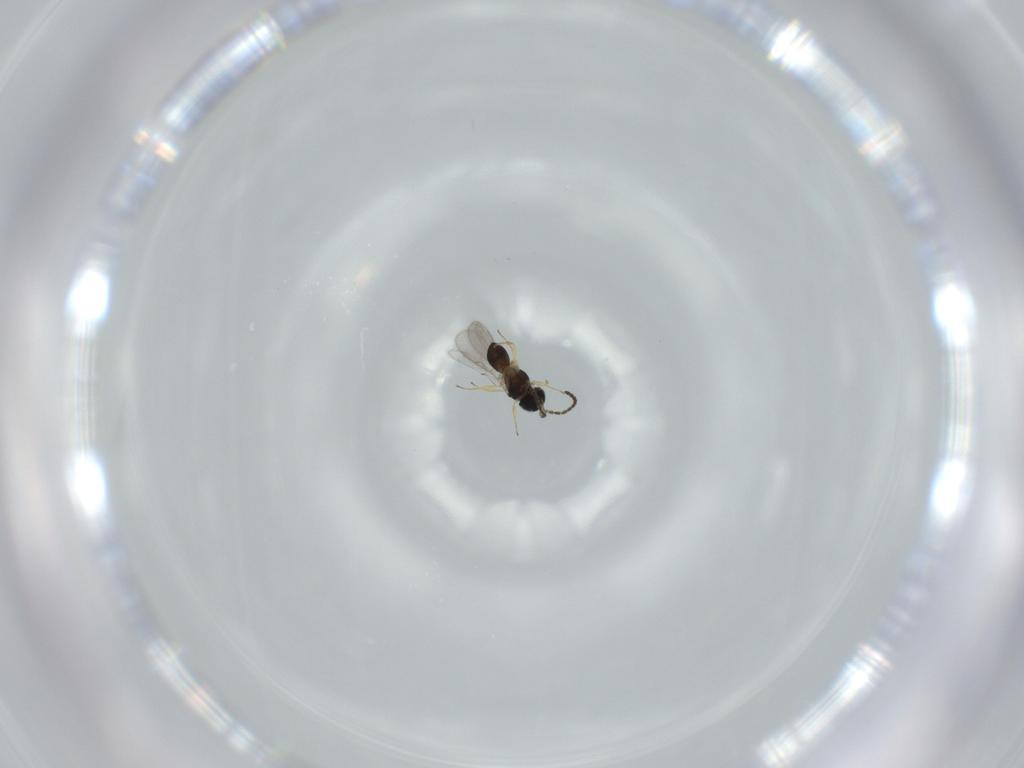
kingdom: Animalia
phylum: Arthropoda
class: Insecta
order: Hymenoptera
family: Scelionidae
